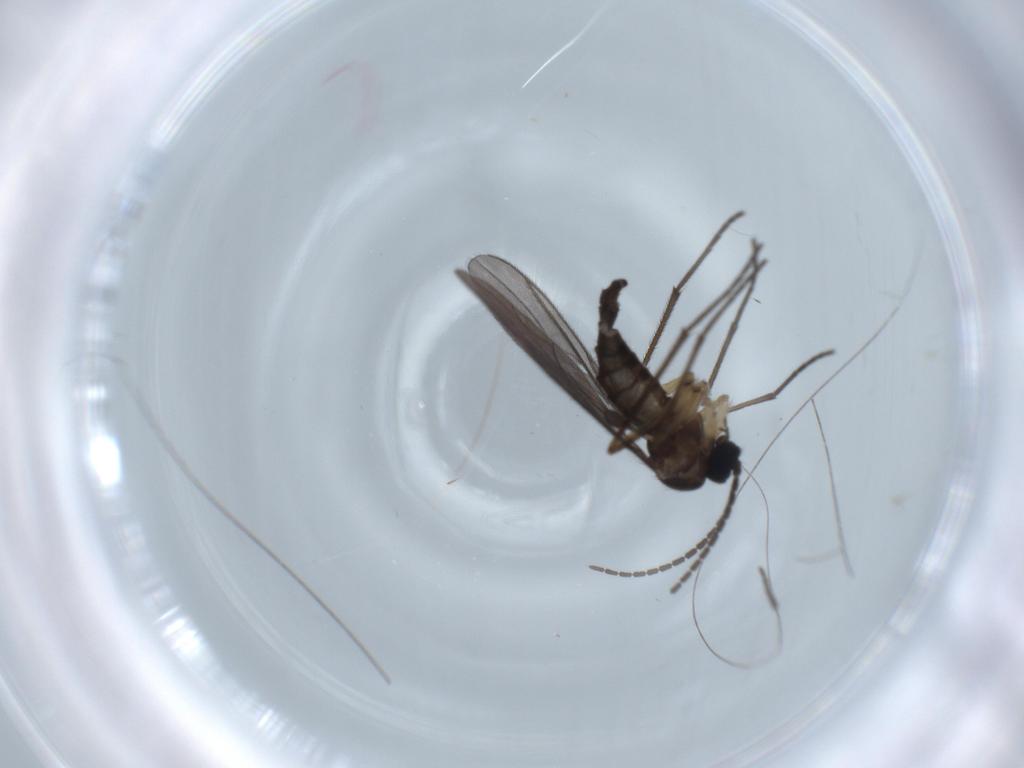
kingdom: Animalia
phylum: Arthropoda
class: Insecta
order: Diptera
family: Sciaridae
